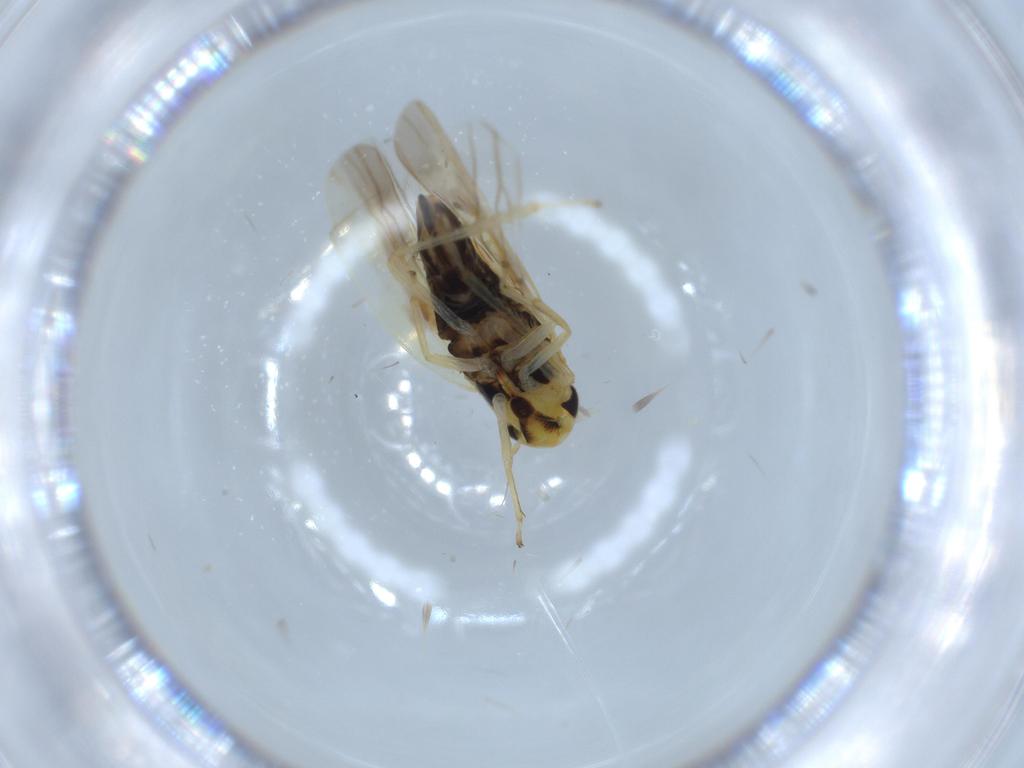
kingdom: Animalia
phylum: Arthropoda
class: Insecta
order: Hemiptera
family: Cicadellidae
